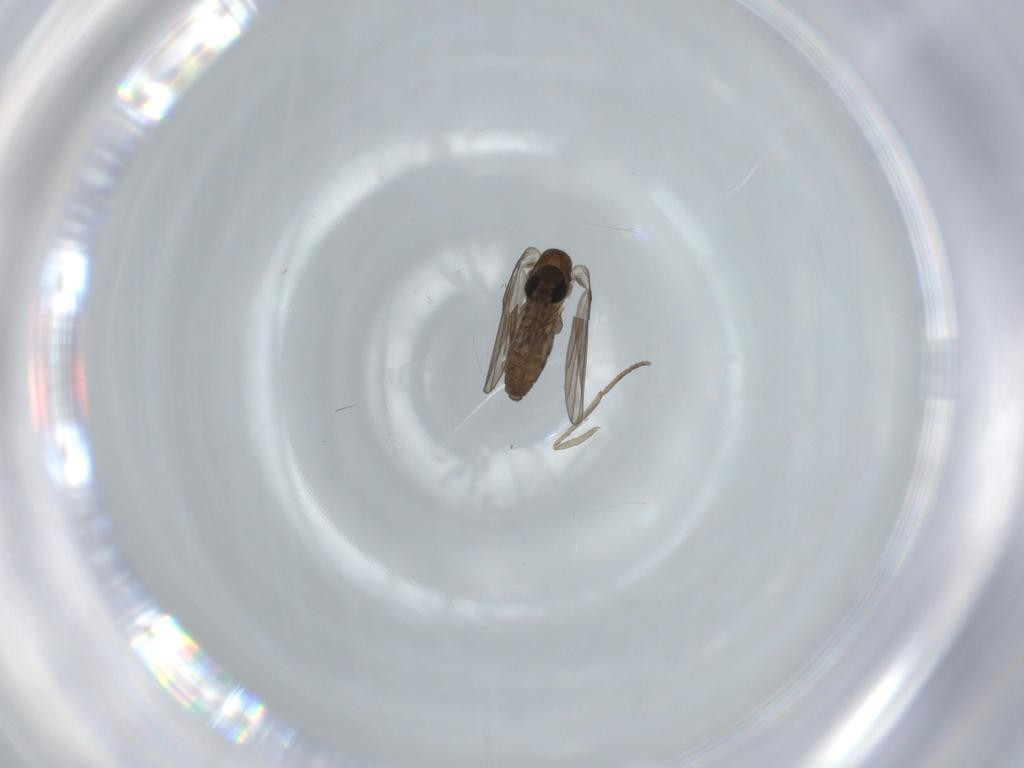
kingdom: Animalia
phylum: Arthropoda
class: Insecta
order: Diptera
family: Psychodidae
